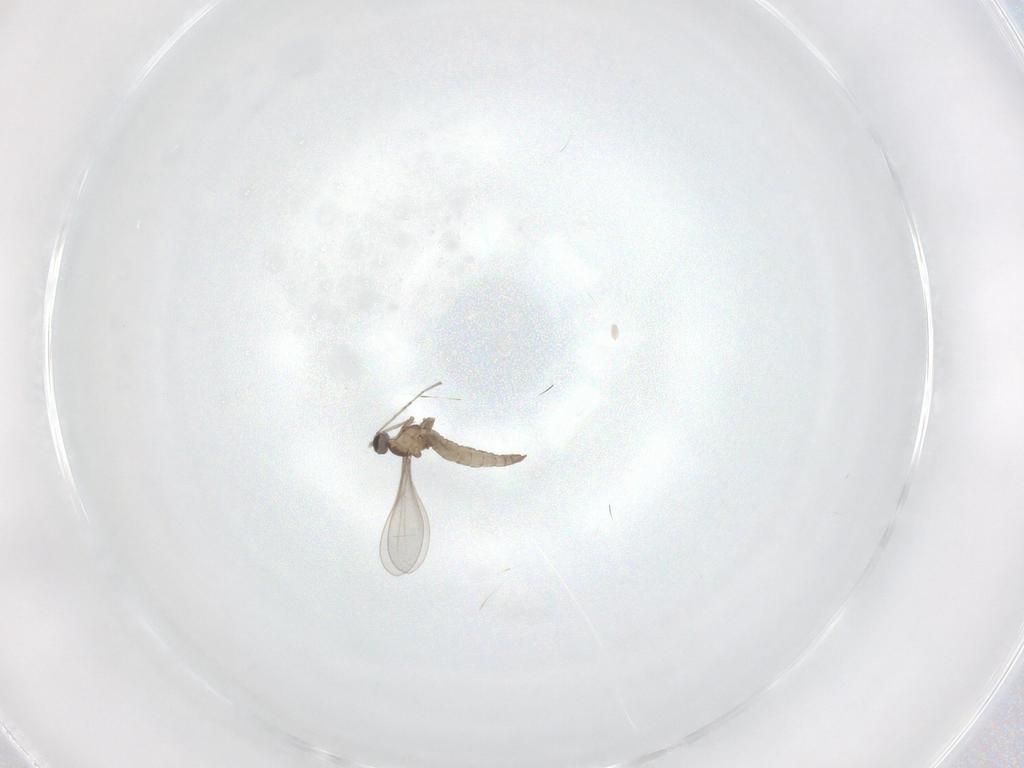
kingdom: Animalia
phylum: Arthropoda
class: Insecta
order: Diptera
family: Cecidomyiidae
